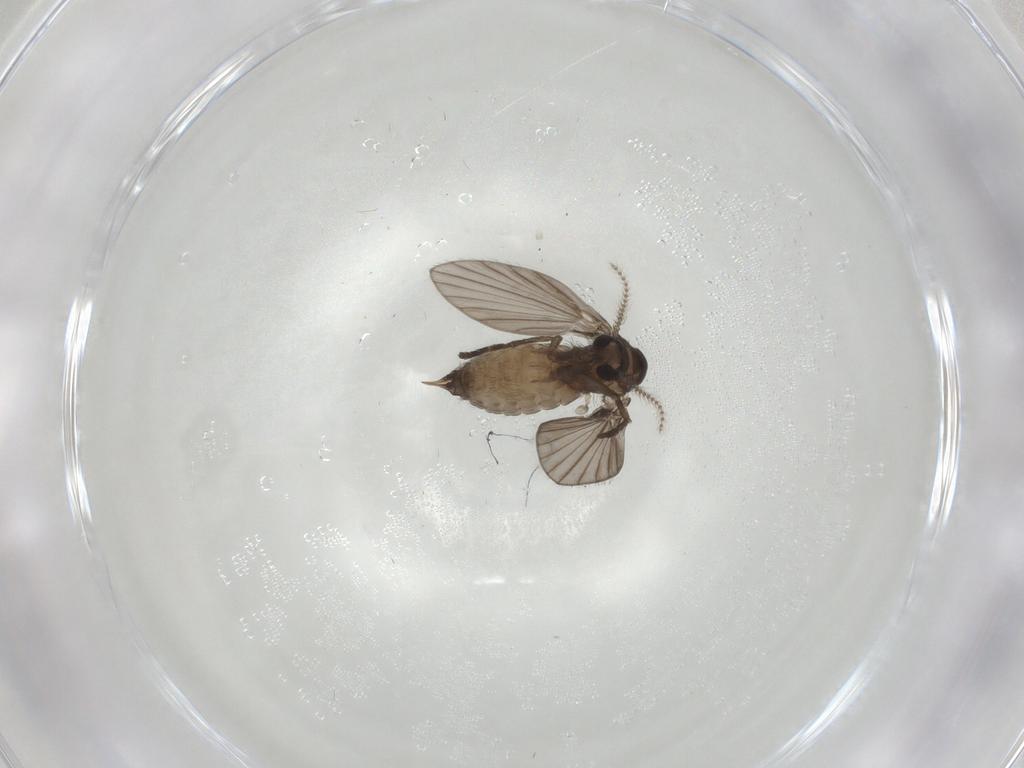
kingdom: Animalia
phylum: Arthropoda
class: Insecta
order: Diptera
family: Psychodidae
